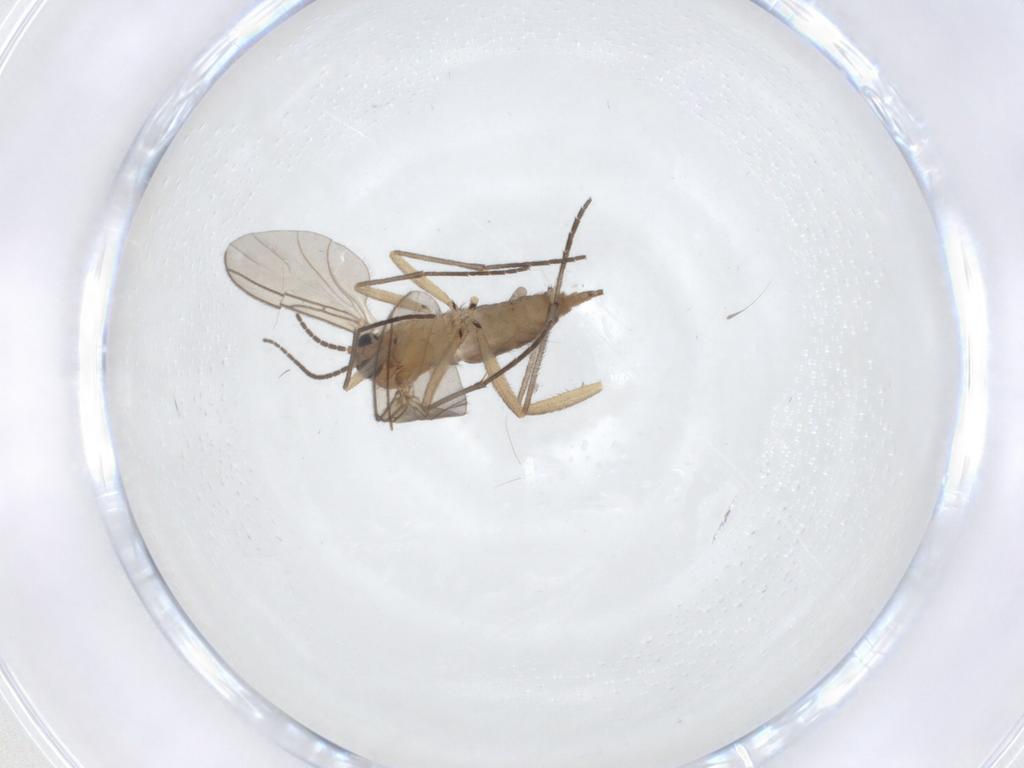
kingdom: Animalia
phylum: Arthropoda
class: Insecta
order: Diptera
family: Sciaridae
